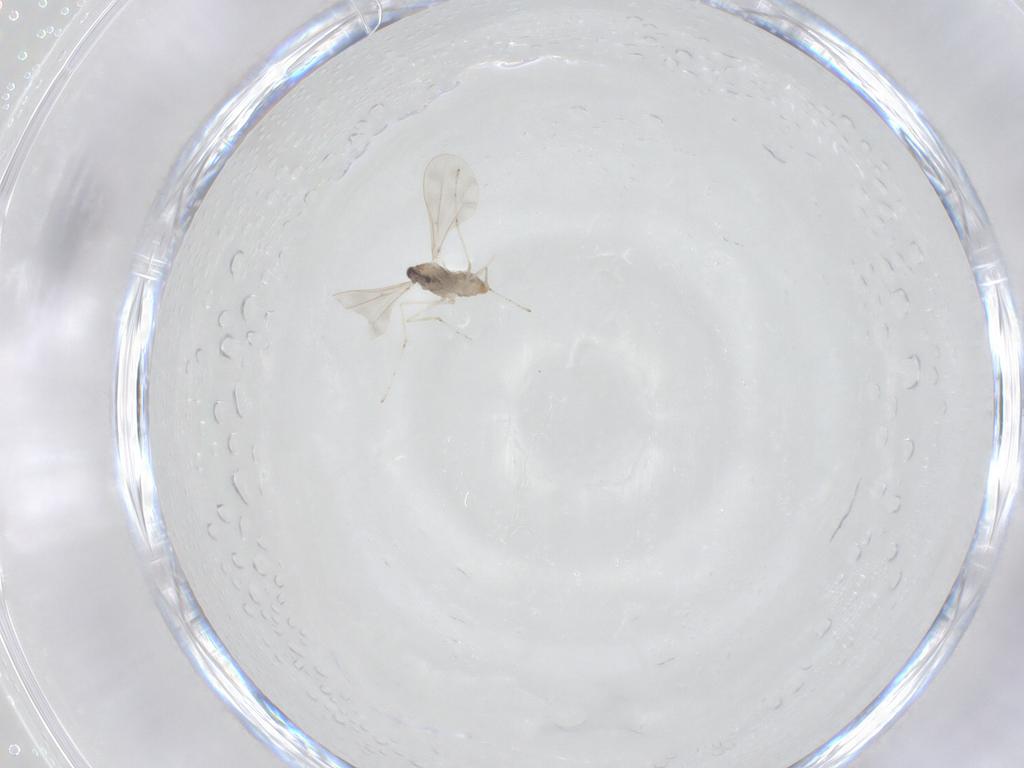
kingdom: Animalia
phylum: Arthropoda
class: Insecta
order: Diptera
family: Cecidomyiidae
